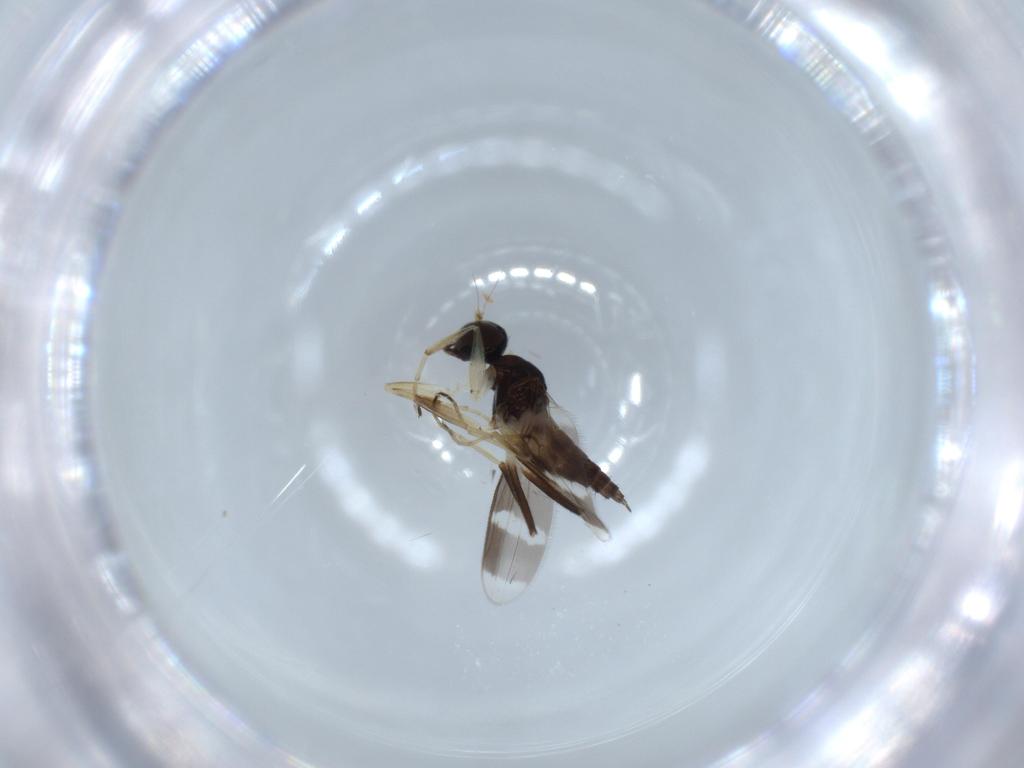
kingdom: Animalia
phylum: Arthropoda
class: Insecta
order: Diptera
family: Hybotidae
